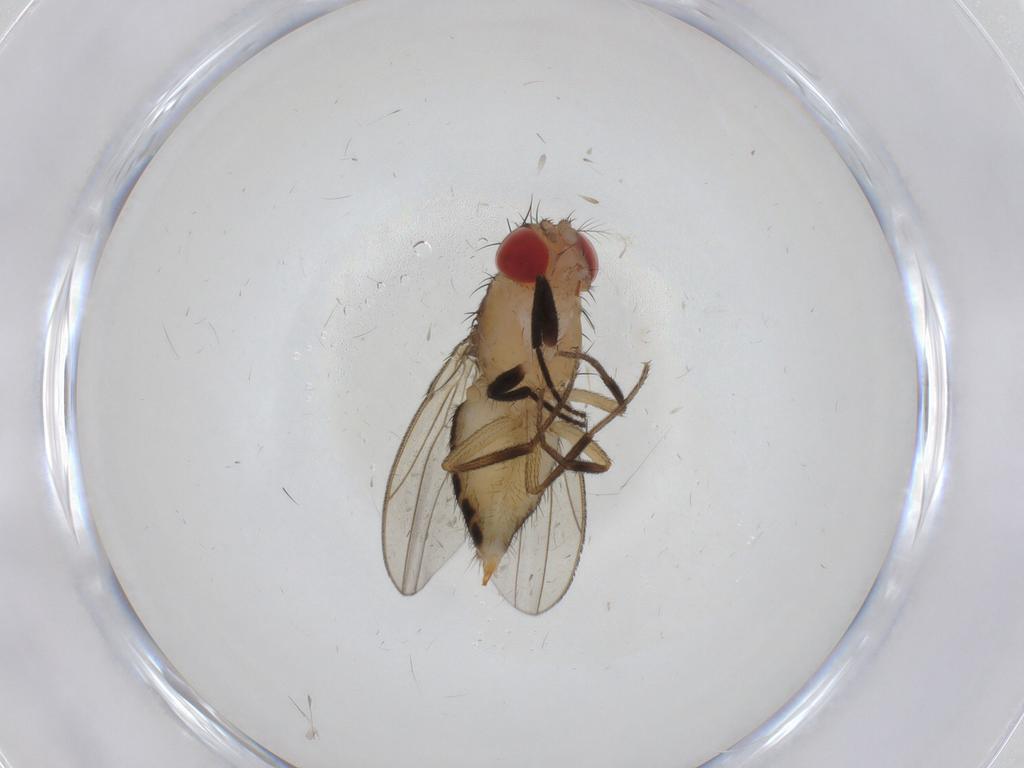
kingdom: Animalia
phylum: Arthropoda
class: Insecta
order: Diptera
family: Drosophilidae
